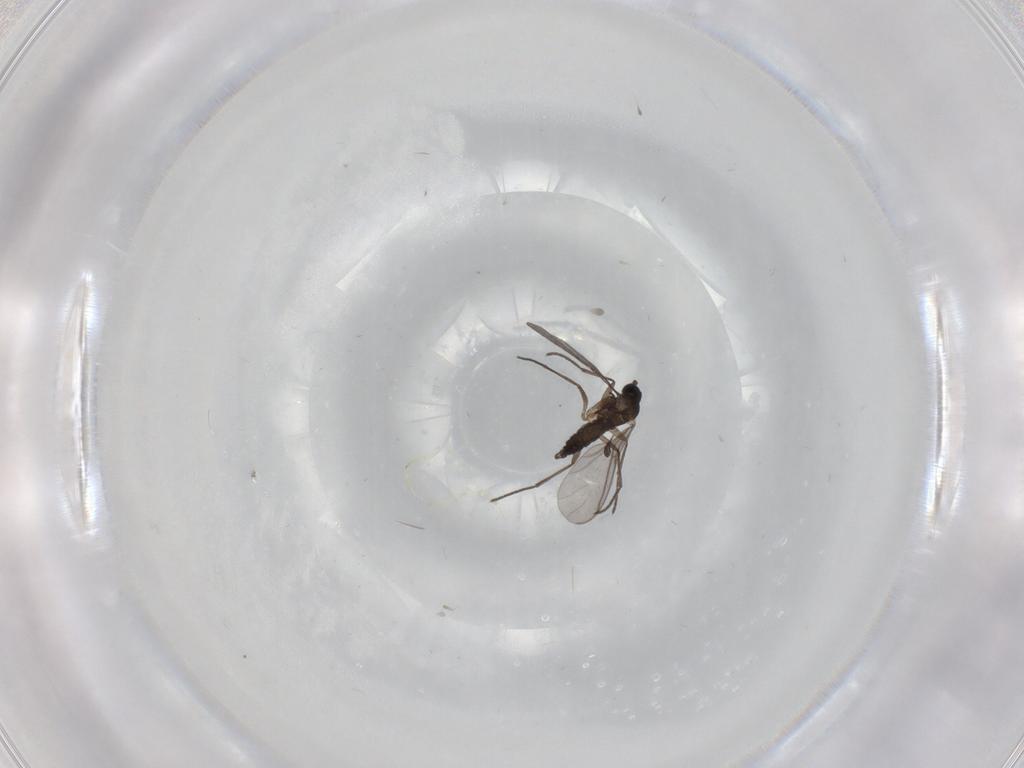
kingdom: Animalia
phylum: Arthropoda
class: Insecta
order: Diptera
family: Sciaridae
